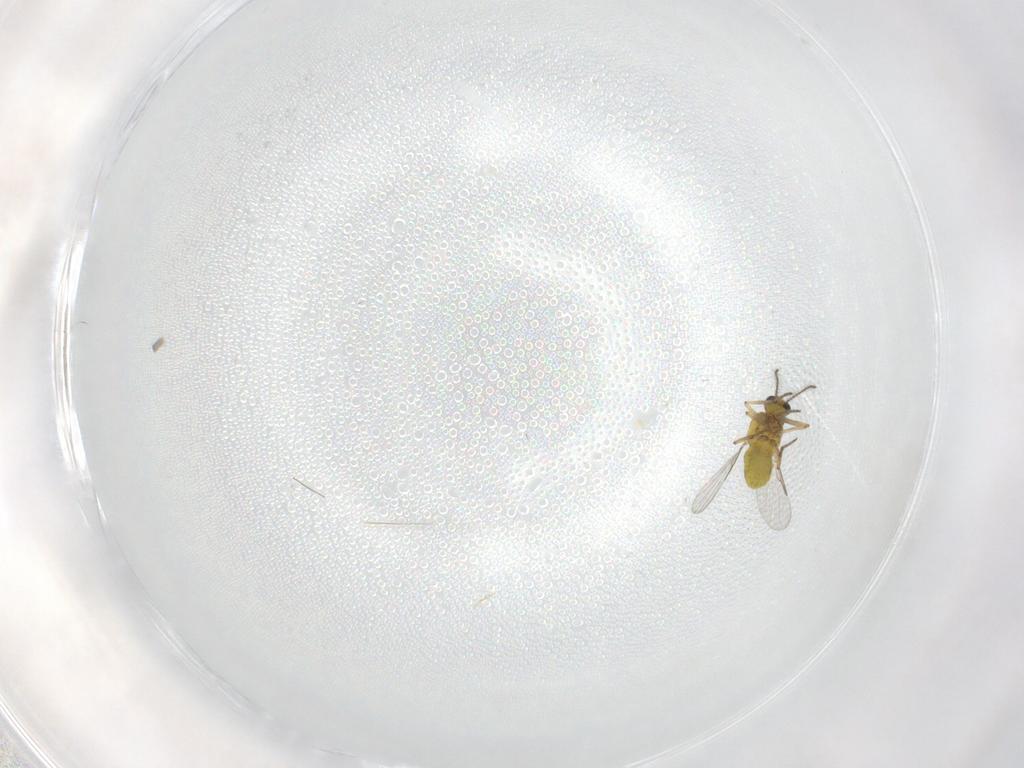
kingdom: Animalia
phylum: Arthropoda
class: Insecta
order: Diptera
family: Ceratopogonidae
